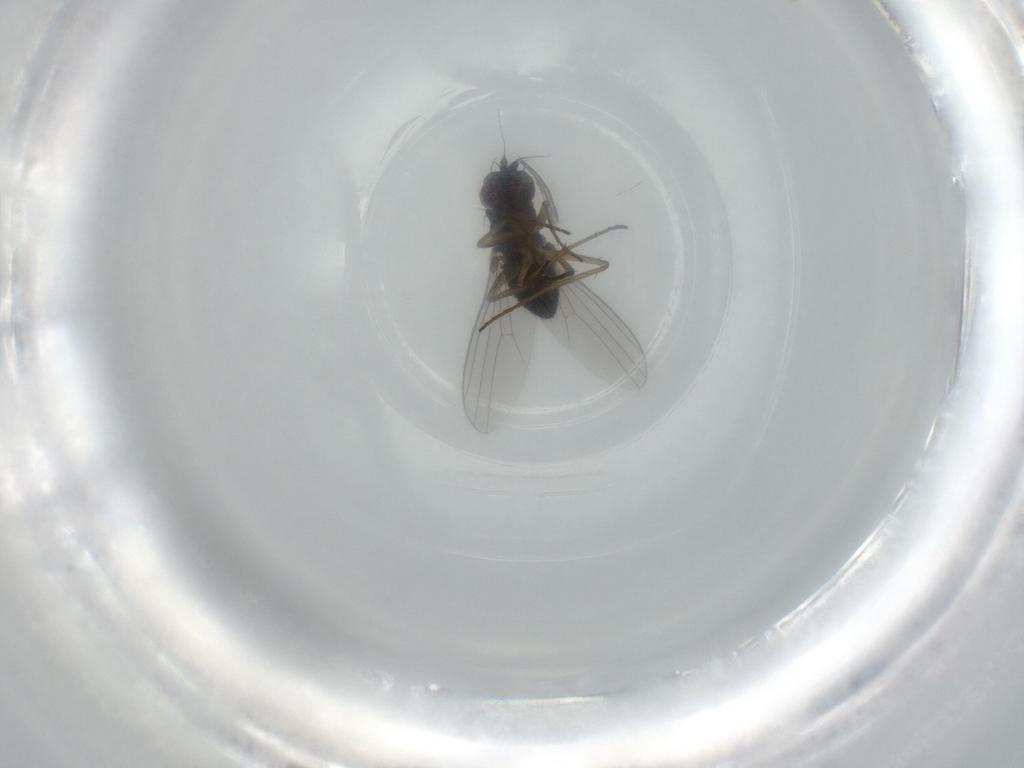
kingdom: Animalia
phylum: Arthropoda
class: Insecta
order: Diptera
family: Dolichopodidae
